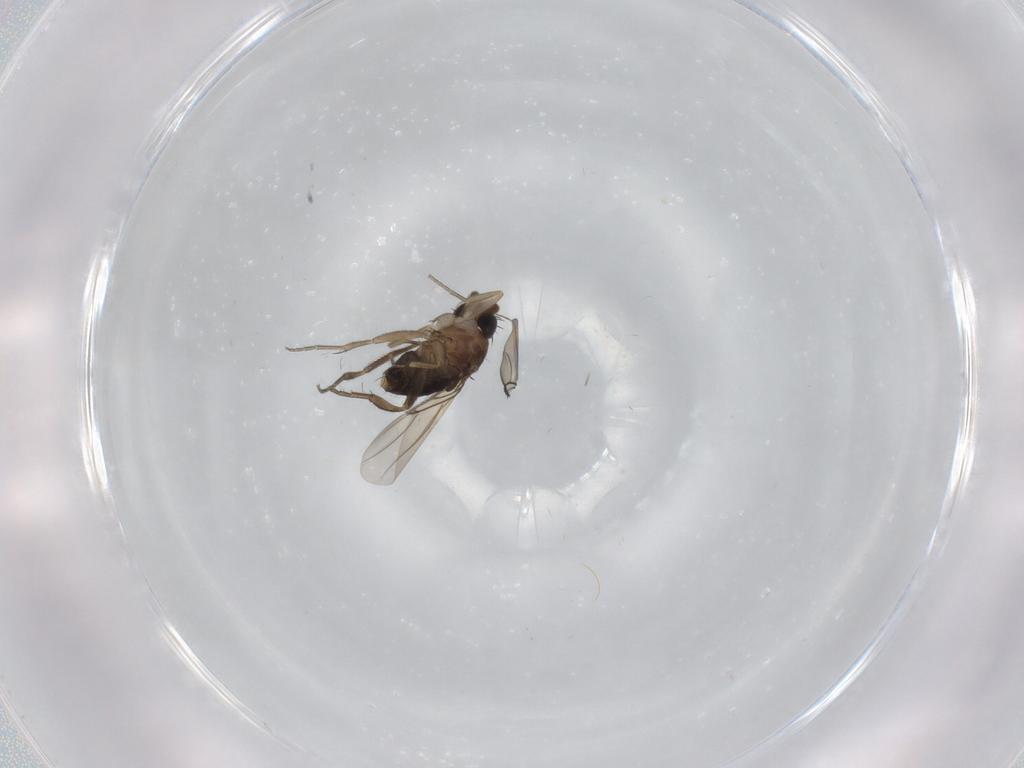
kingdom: Animalia
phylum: Arthropoda
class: Insecta
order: Diptera
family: Phoridae
